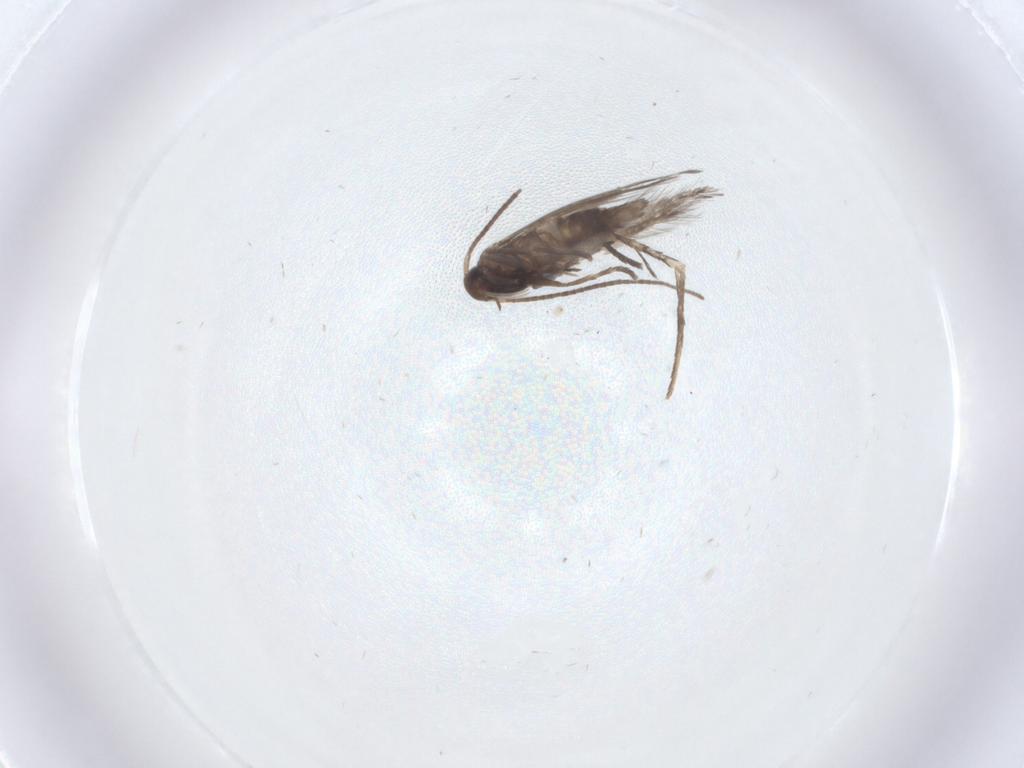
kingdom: Animalia
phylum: Arthropoda
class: Insecta
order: Lepidoptera
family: Gracillariidae
